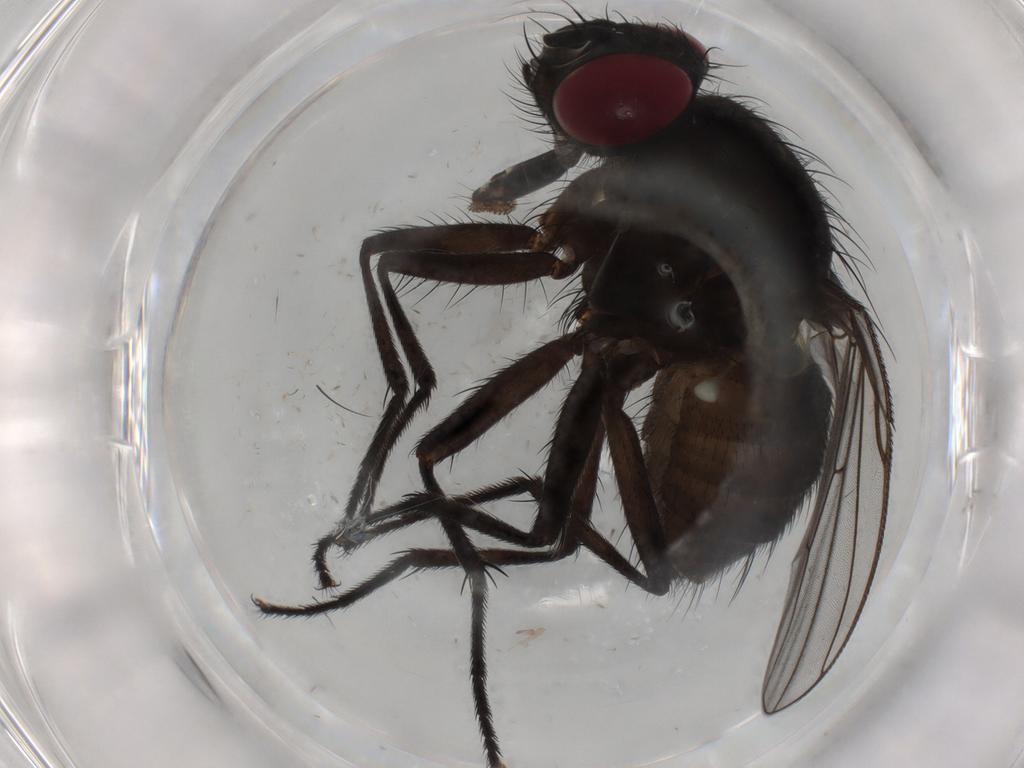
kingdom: Animalia
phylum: Arthropoda
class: Insecta
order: Diptera
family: Muscidae
